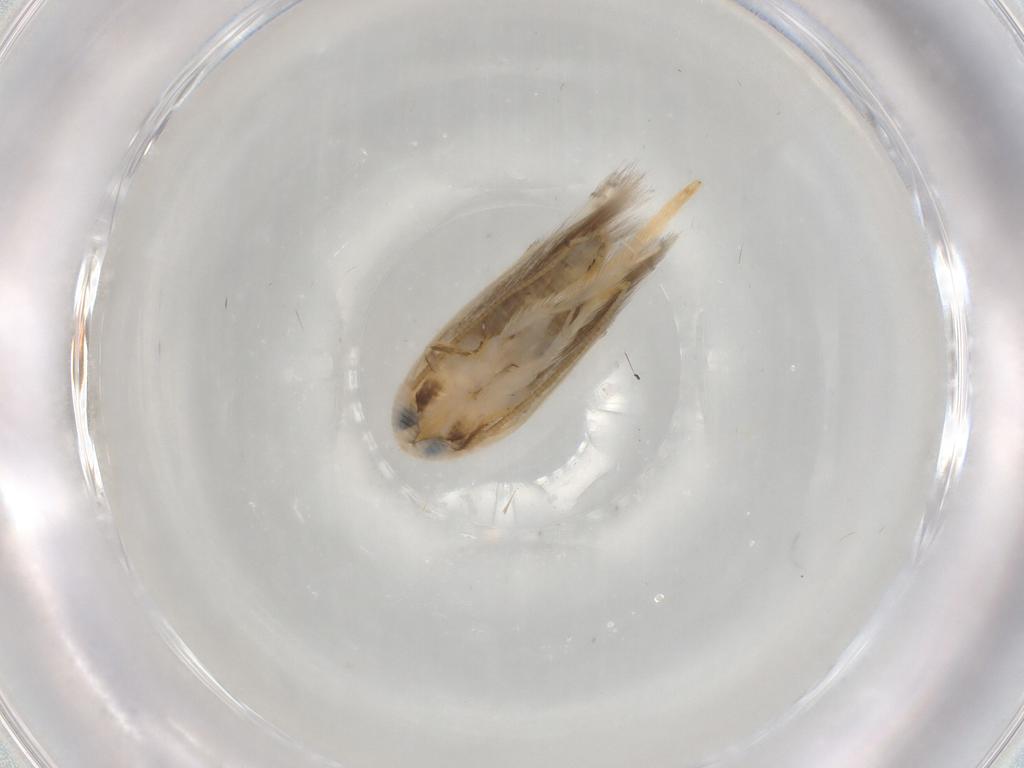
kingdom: Animalia
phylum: Arthropoda
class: Insecta
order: Lepidoptera
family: Opostegidae
